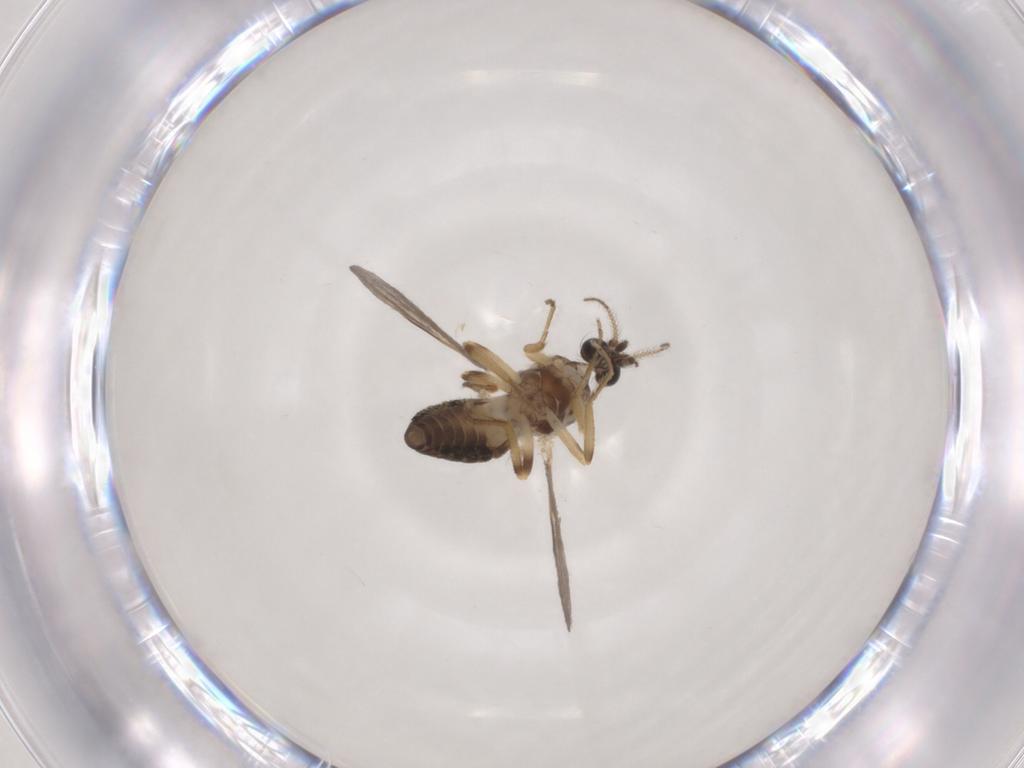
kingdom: Animalia
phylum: Arthropoda
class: Insecta
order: Diptera
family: Ceratopogonidae
